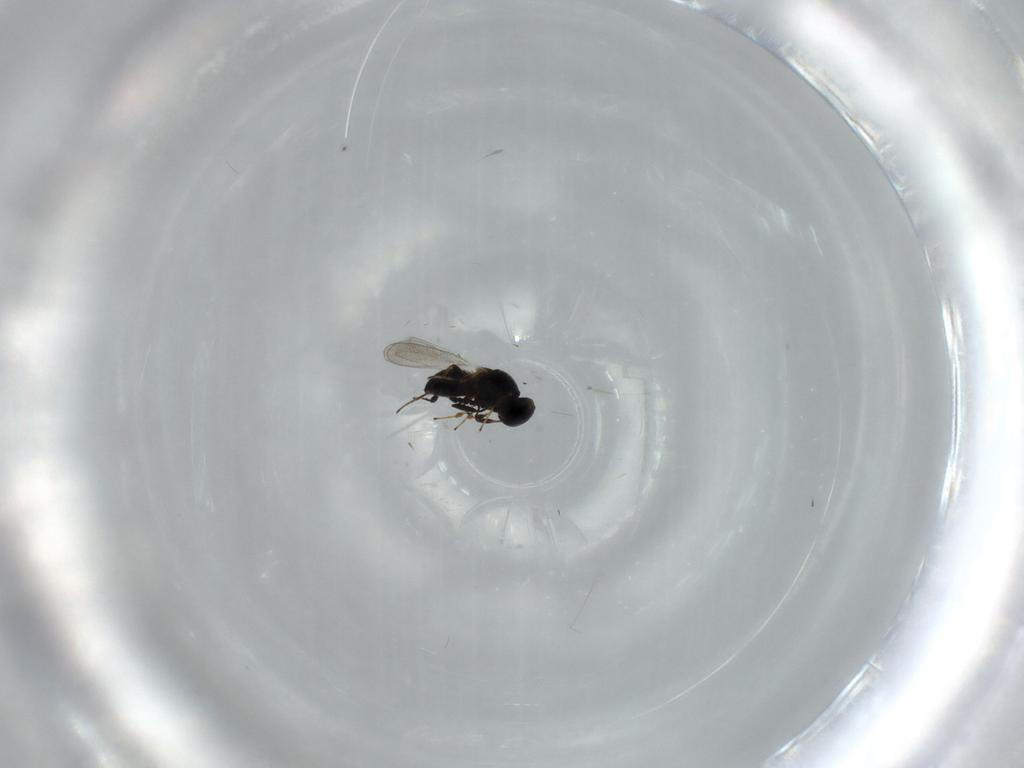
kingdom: Animalia
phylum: Arthropoda
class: Insecta
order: Hymenoptera
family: Platygastridae
